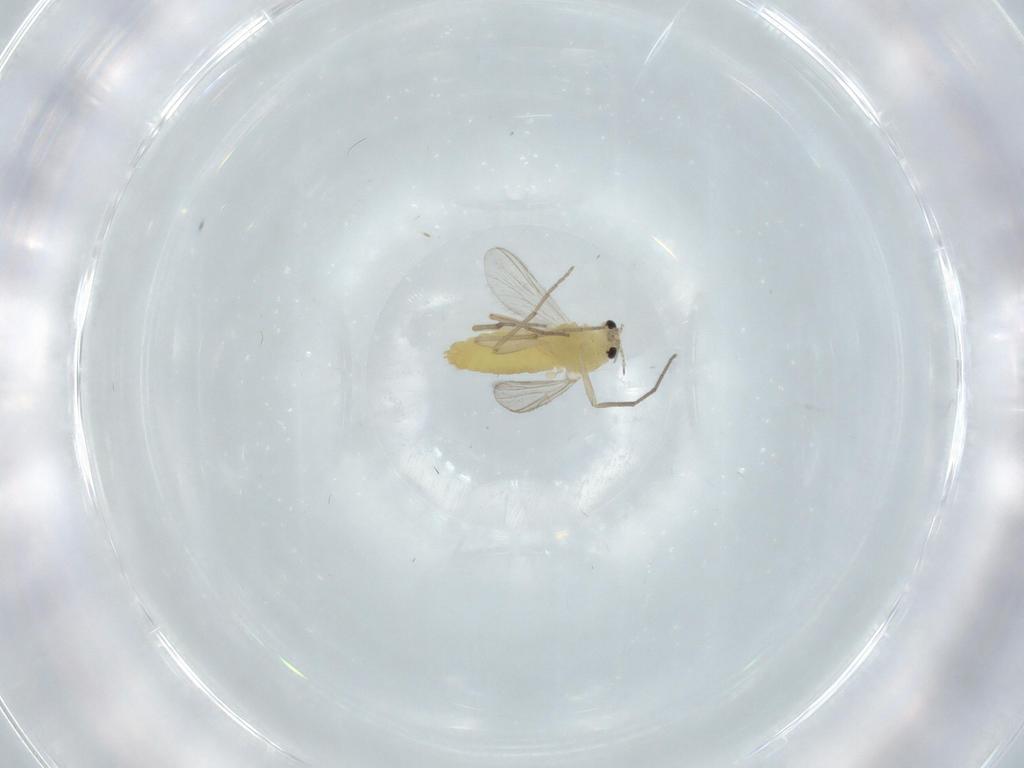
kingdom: Animalia
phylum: Arthropoda
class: Insecta
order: Diptera
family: Chironomidae
